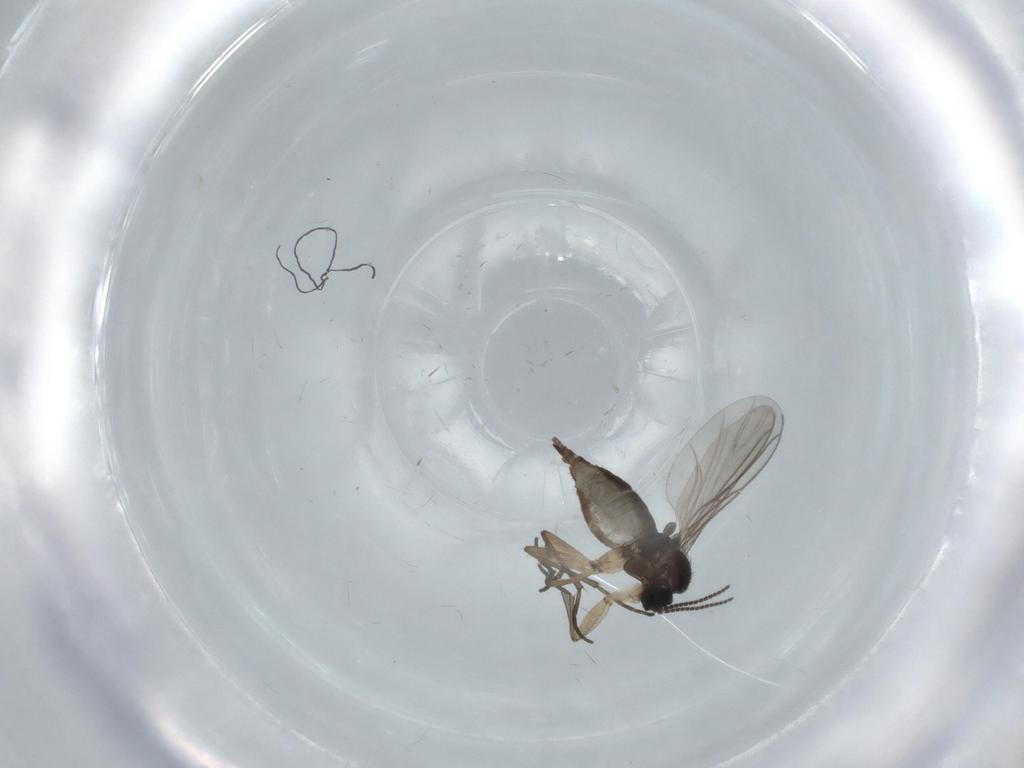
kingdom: Animalia
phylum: Arthropoda
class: Insecta
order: Diptera
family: Sciaridae
